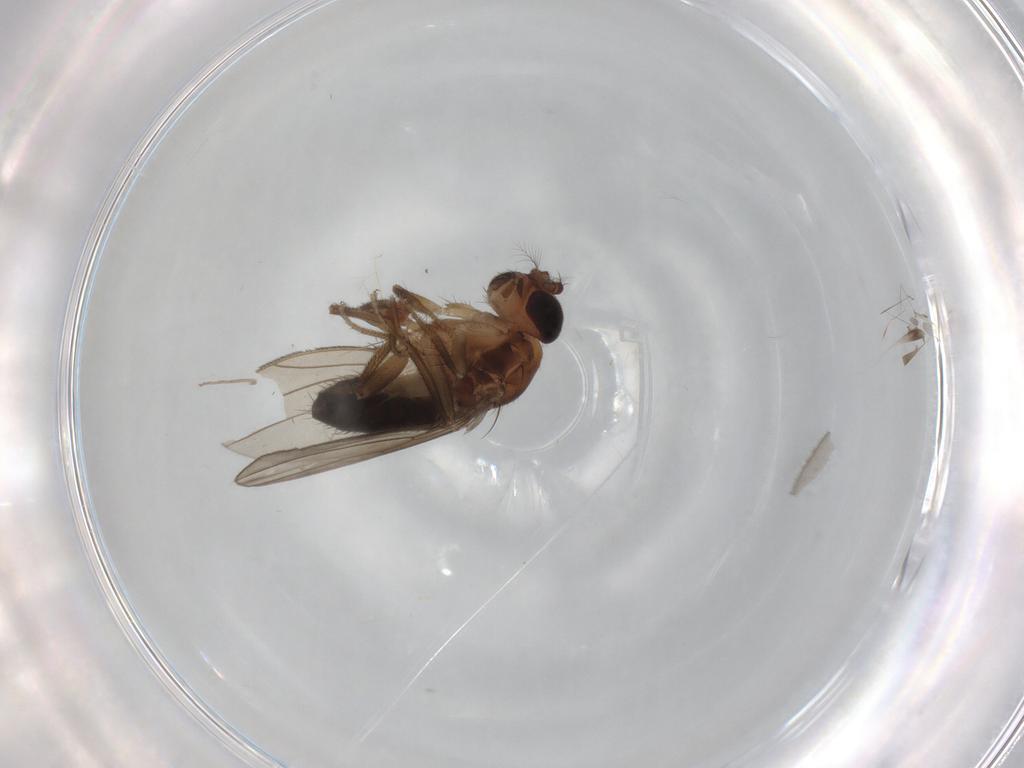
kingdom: Animalia
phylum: Arthropoda
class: Insecta
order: Diptera
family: Drosophilidae
